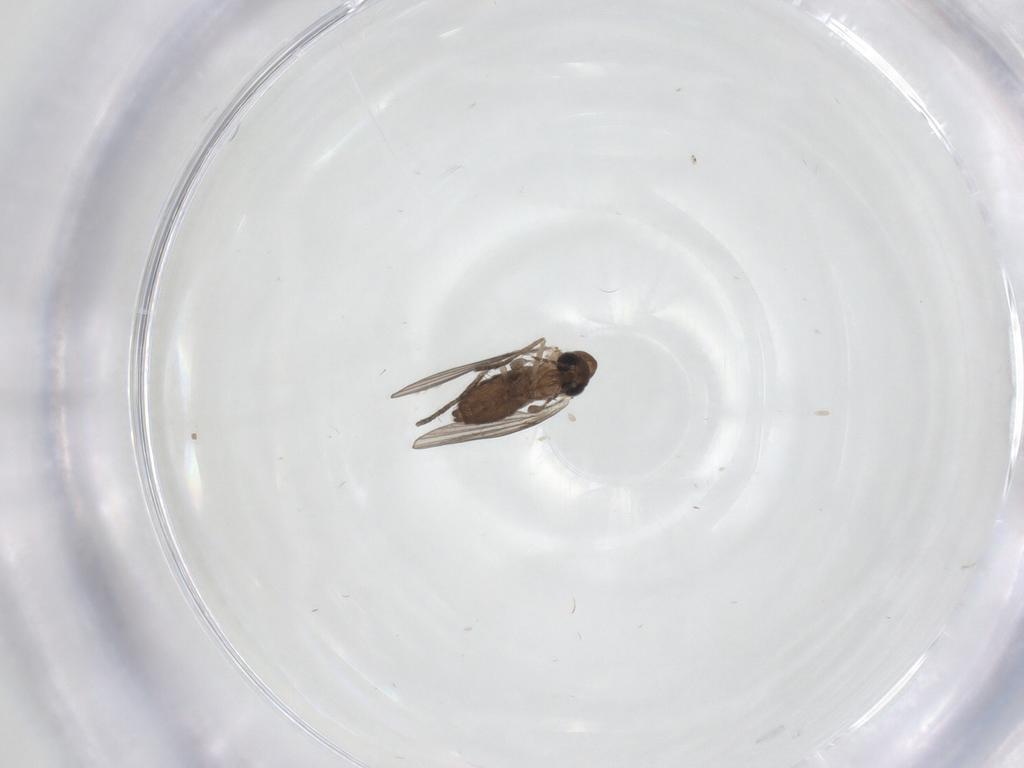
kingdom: Animalia
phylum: Arthropoda
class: Insecta
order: Diptera
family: Psychodidae
